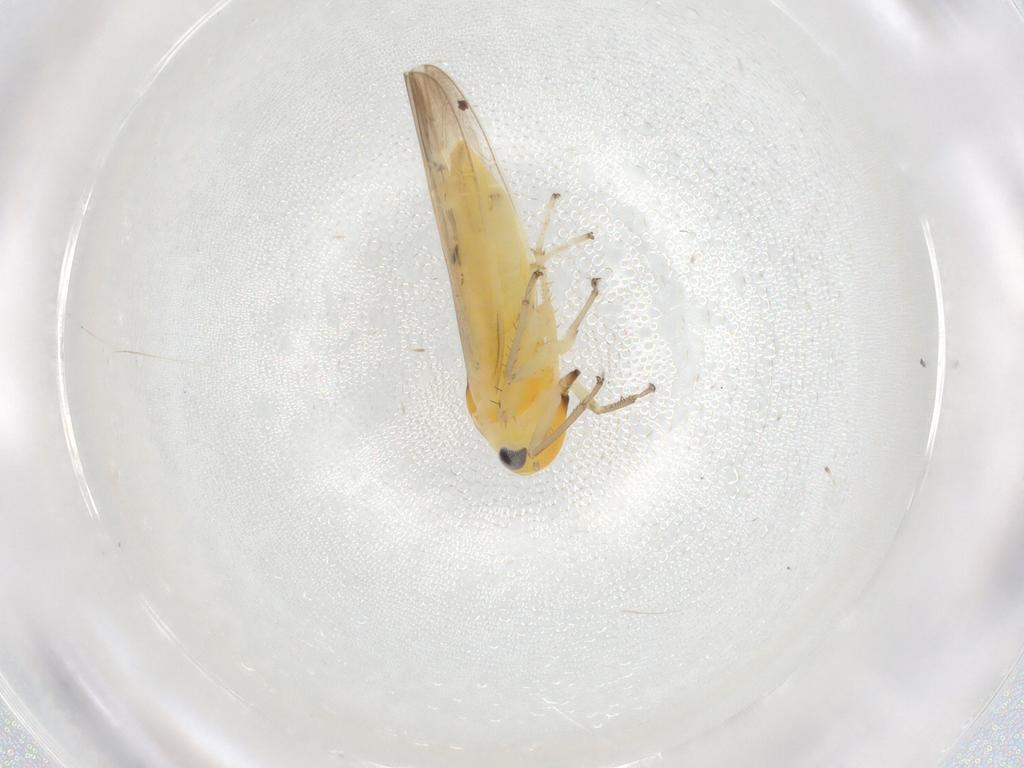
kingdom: Animalia
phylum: Arthropoda
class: Insecta
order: Hemiptera
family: Cicadellidae
